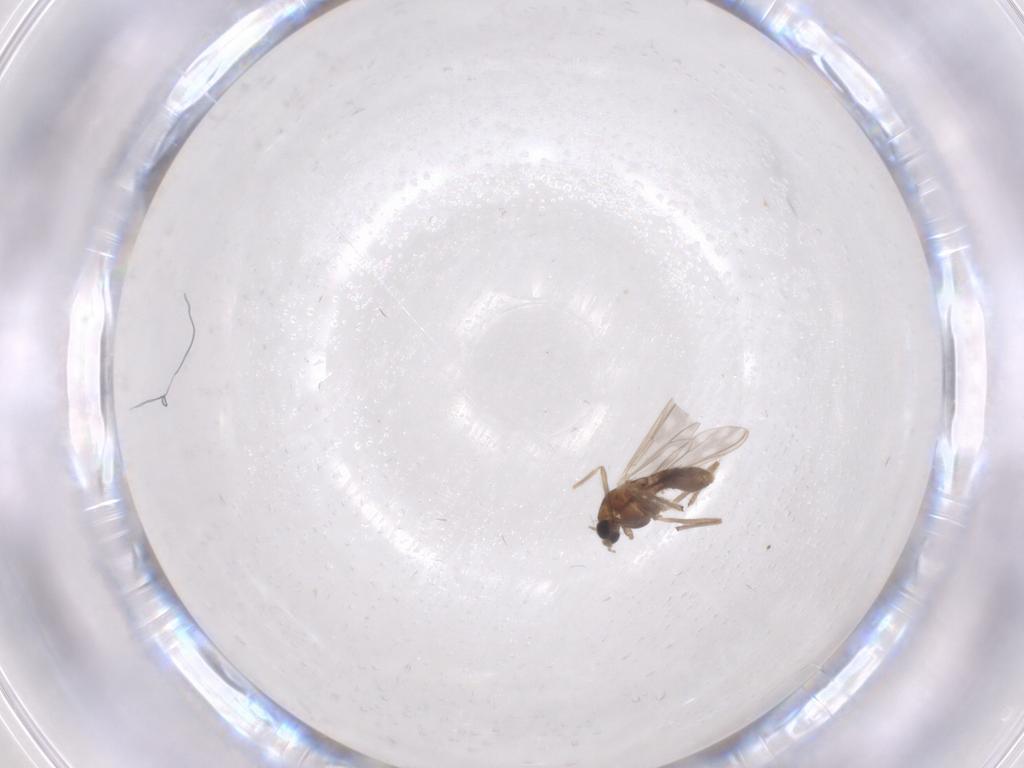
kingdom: Animalia
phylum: Arthropoda
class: Insecta
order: Diptera
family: Chironomidae
